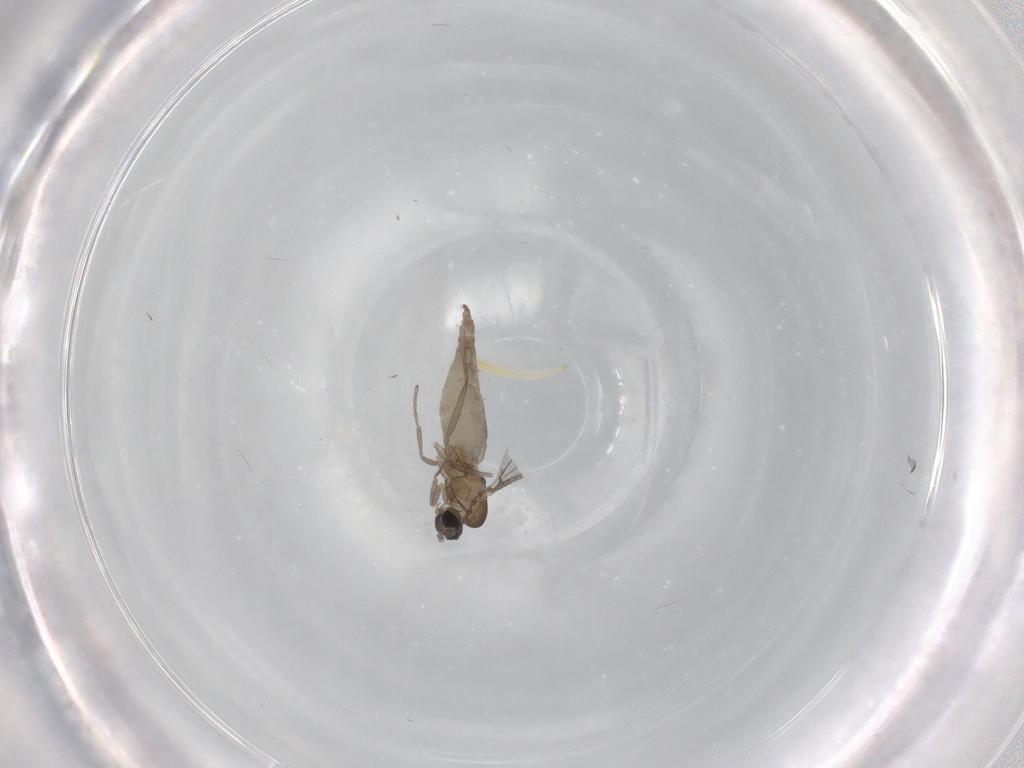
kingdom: Animalia
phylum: Arthropoda
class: Insecta
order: Diptera
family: Cecidomyiidae
